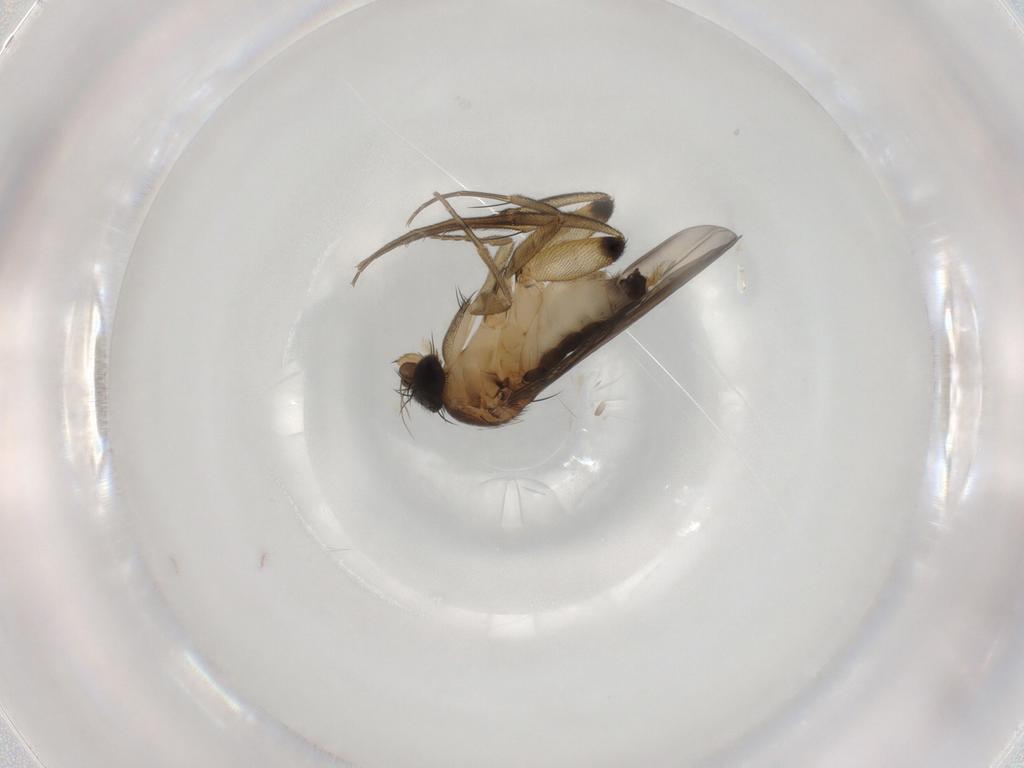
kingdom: Animalia
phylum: Arthropoda
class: Insecta
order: Diptera
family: Phoridae
